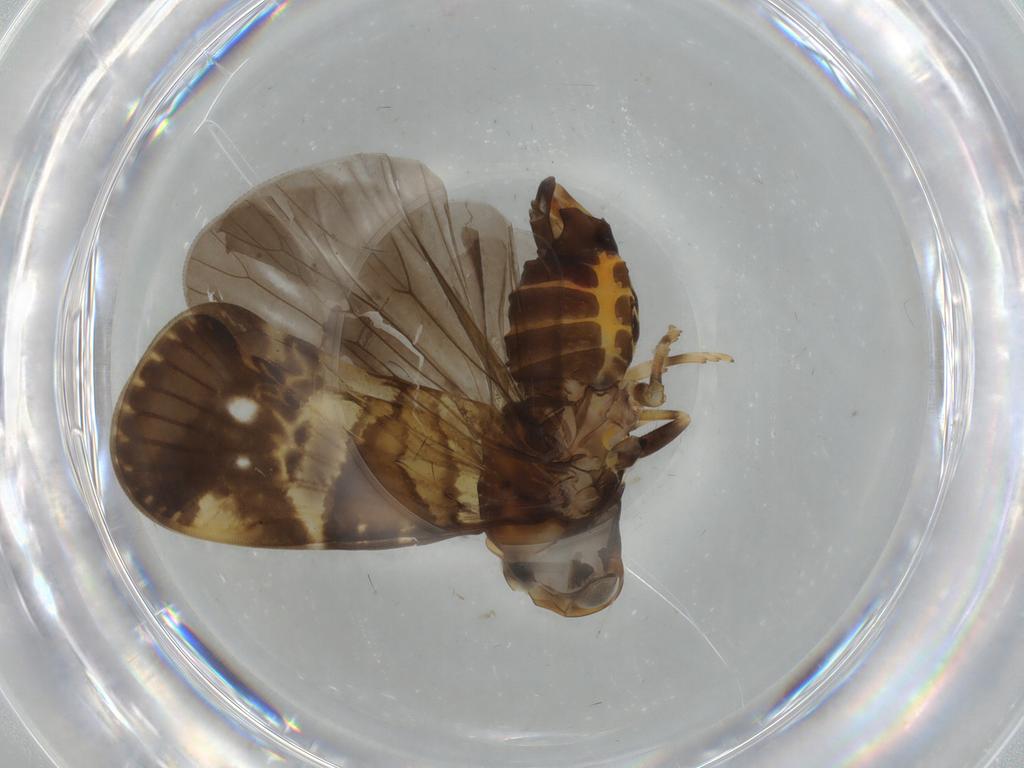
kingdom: Animalia
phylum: Arthropoda
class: Insecta
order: Hemiptera
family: Cixiidae
